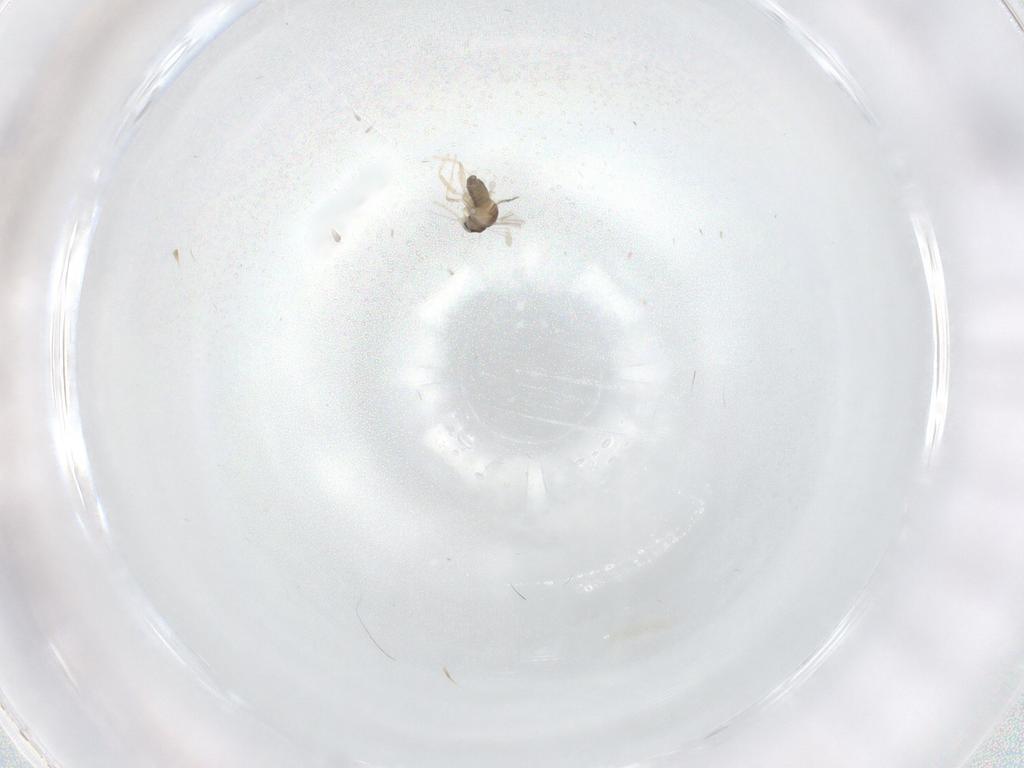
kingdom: Animalia
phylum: Arthropoda
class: Insecta
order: Diptera
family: Cecidomyiidae
